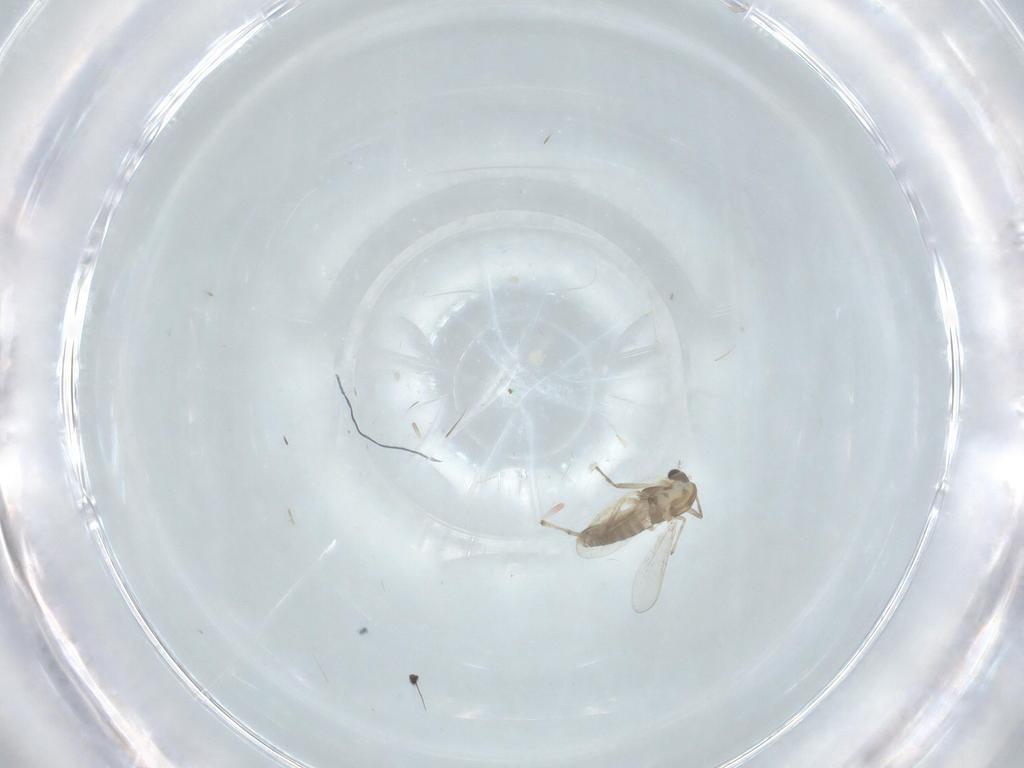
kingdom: Animalia
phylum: Arthropoda
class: Insecta
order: Diptera
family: Chironomidae
